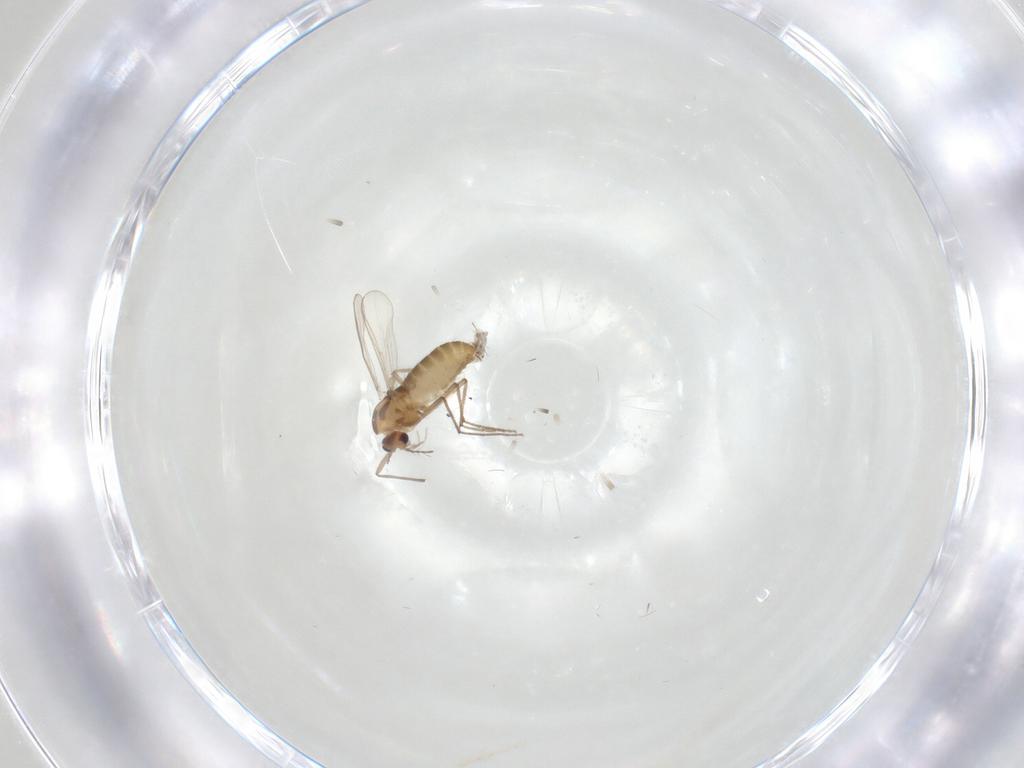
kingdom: Animalia
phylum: Arthropoda
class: Insecta
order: Diptera
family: Chironomidae
